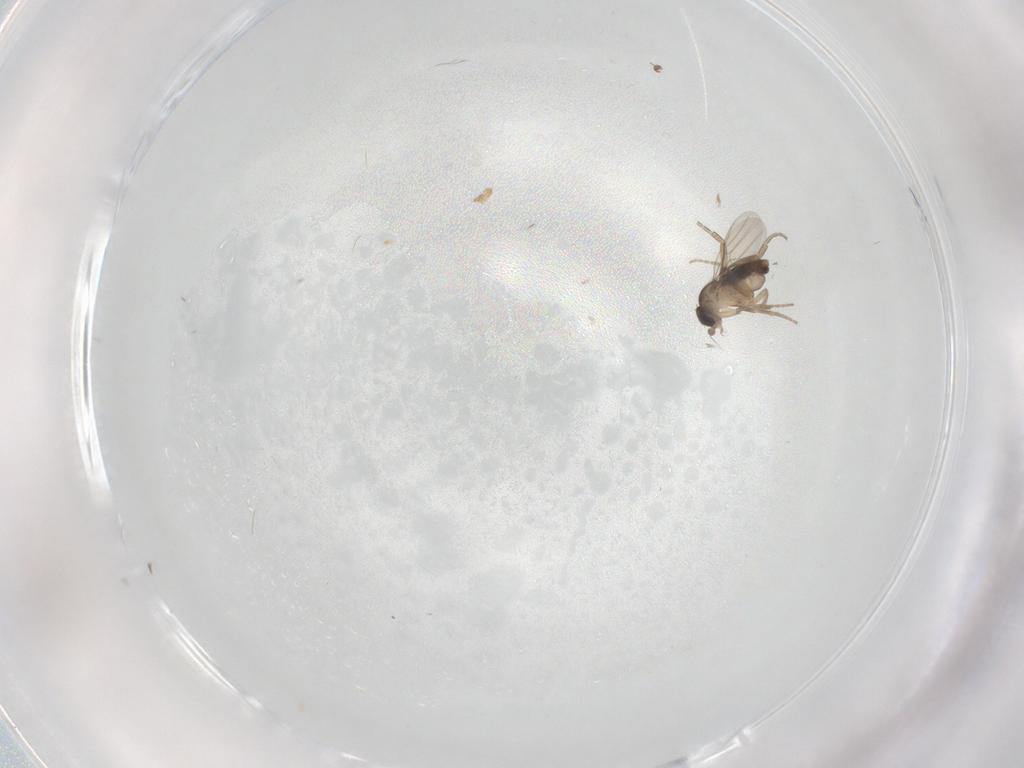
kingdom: Animalia
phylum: Arthropoda
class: Insecta
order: Diptera
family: Phoridae
